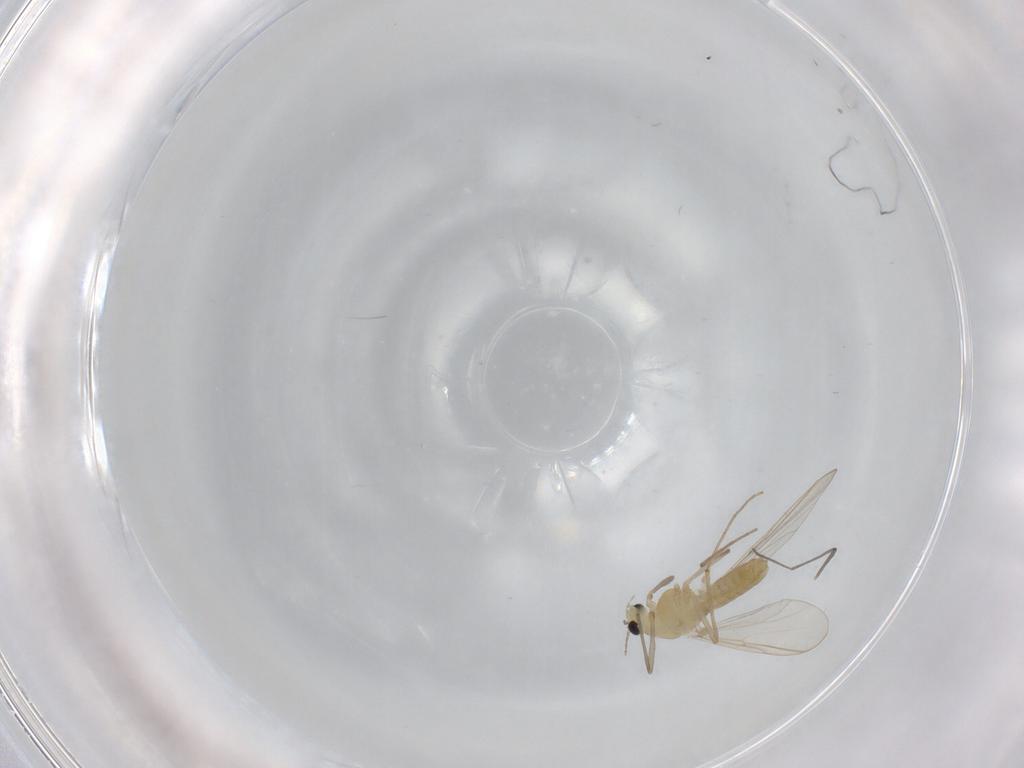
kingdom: Animalia
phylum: Arthropoda
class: Insecta
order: Diptera
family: Chironomidae
